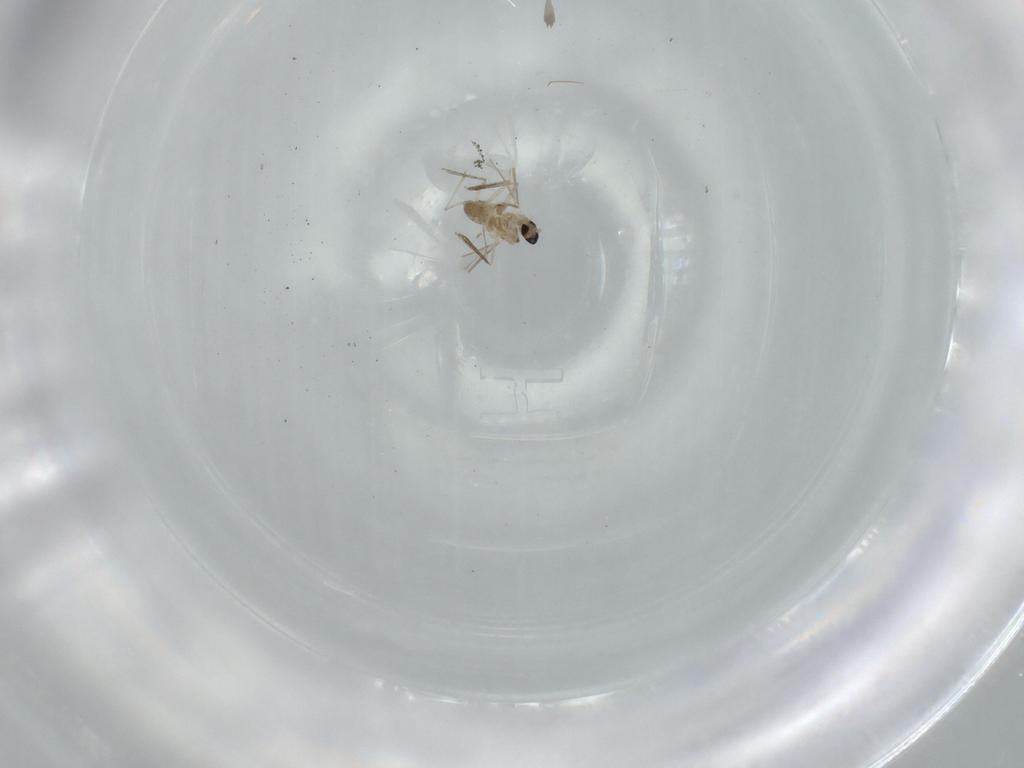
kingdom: Animalia
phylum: Arthropoda
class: Insecta
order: Diptera
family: Cecidomyiidae
